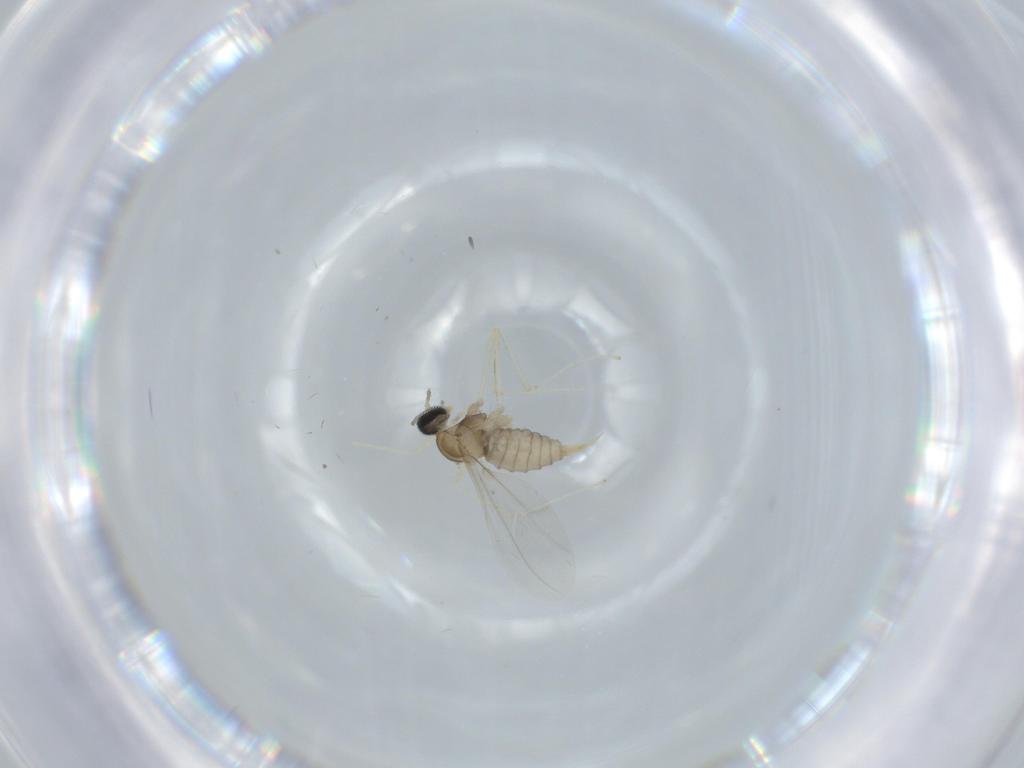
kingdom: Animalia
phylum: Arthropoda
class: Insecta
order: Diptera
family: Cecidomyiidae
